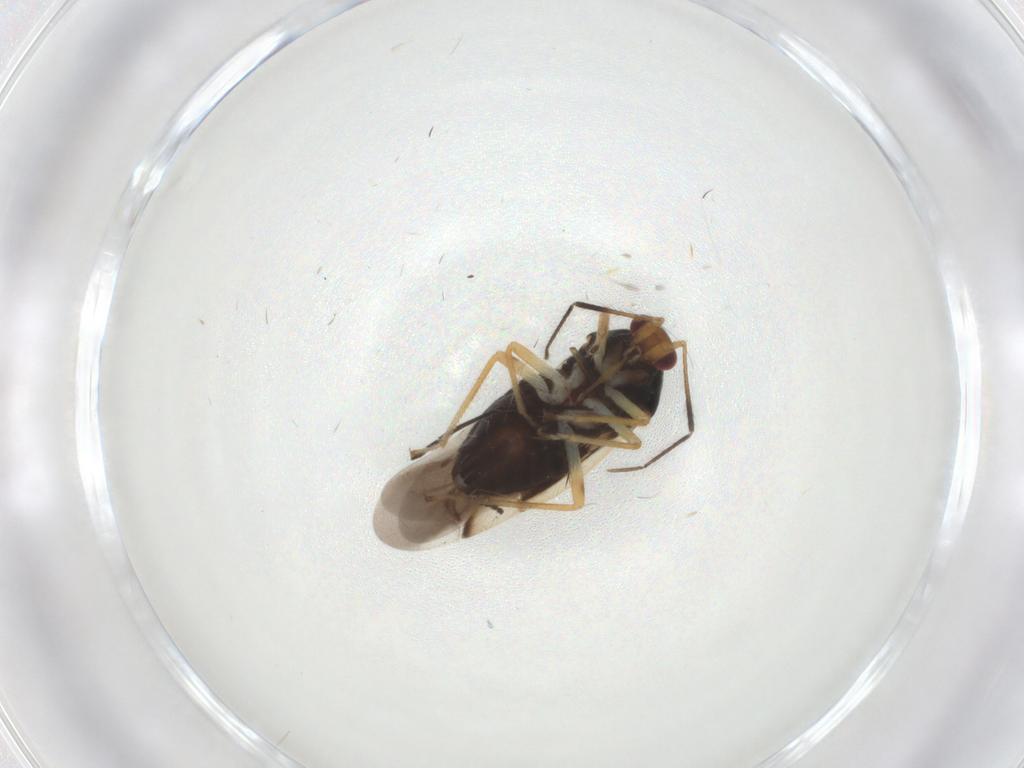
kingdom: Animalia
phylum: Arthropoda
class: Insecta
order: Hemiptera
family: Miridae
